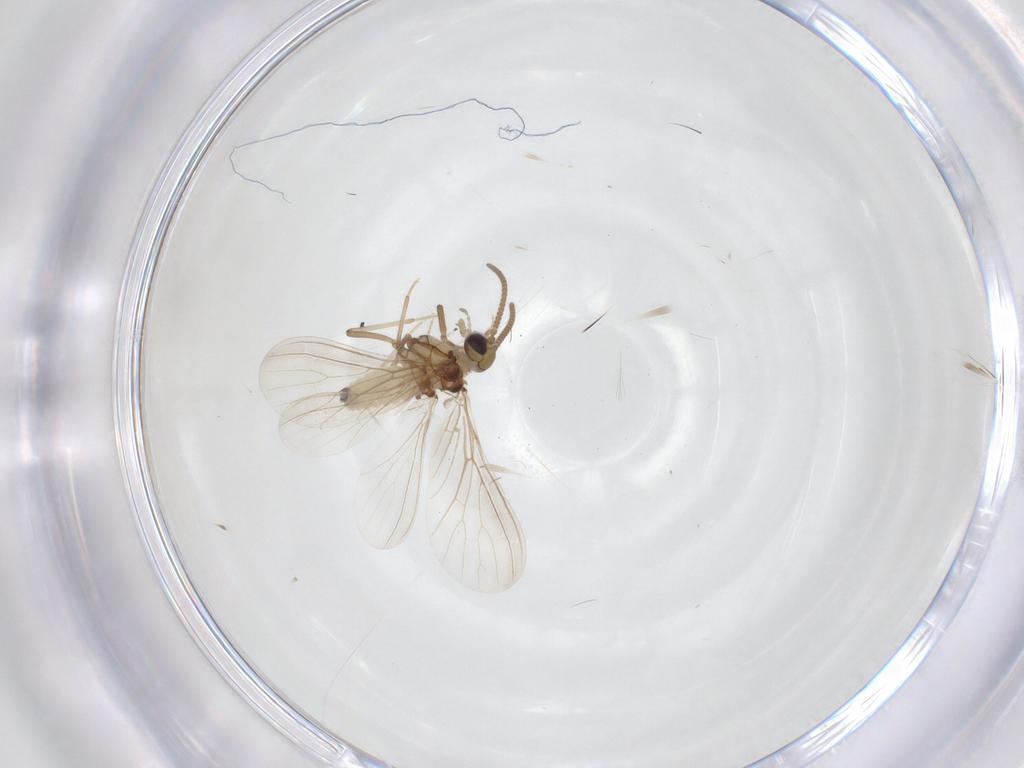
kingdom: Animalia
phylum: Arthropoda
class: Insecta
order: Neuroptera
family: Coniopterygidae
